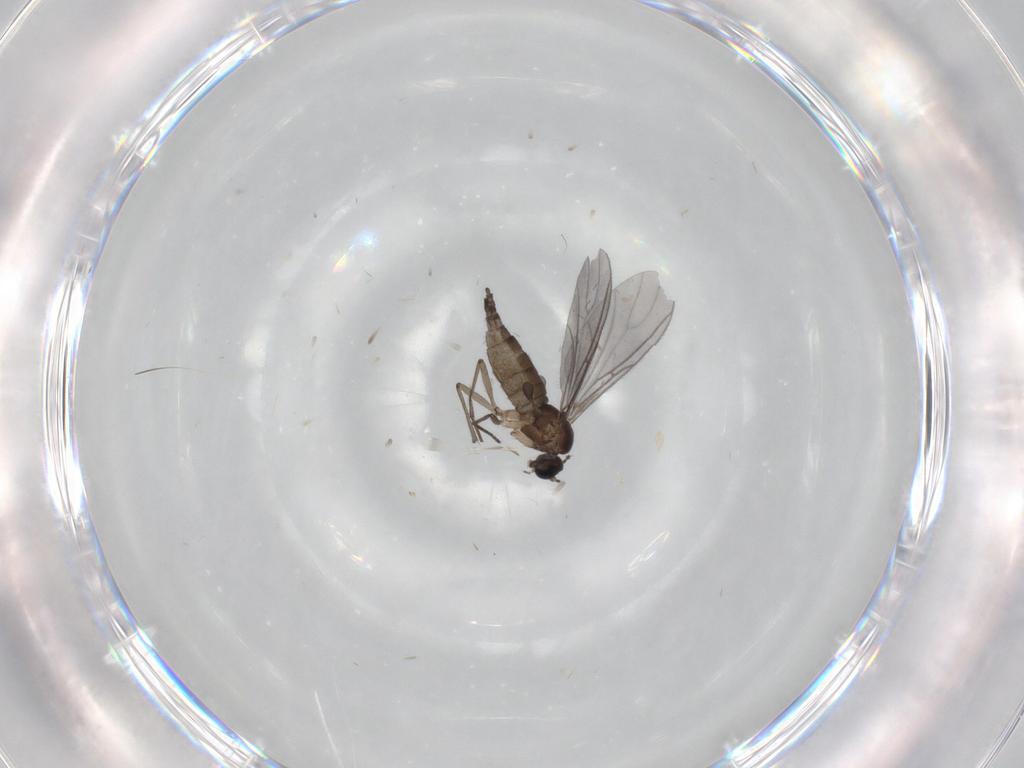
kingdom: Animalia
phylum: Arthropoda
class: Insecta
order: Diptera
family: Sciaridae
